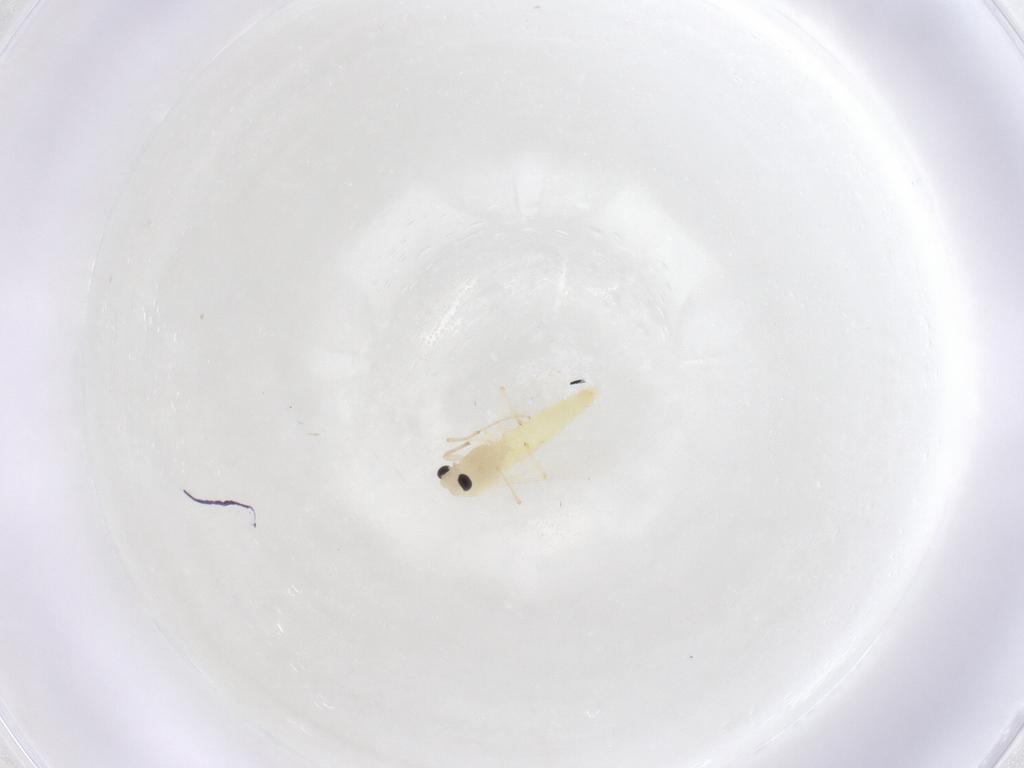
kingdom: Animalia
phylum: Arthropoda
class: Insecta
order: Diptera
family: Chironomidae
